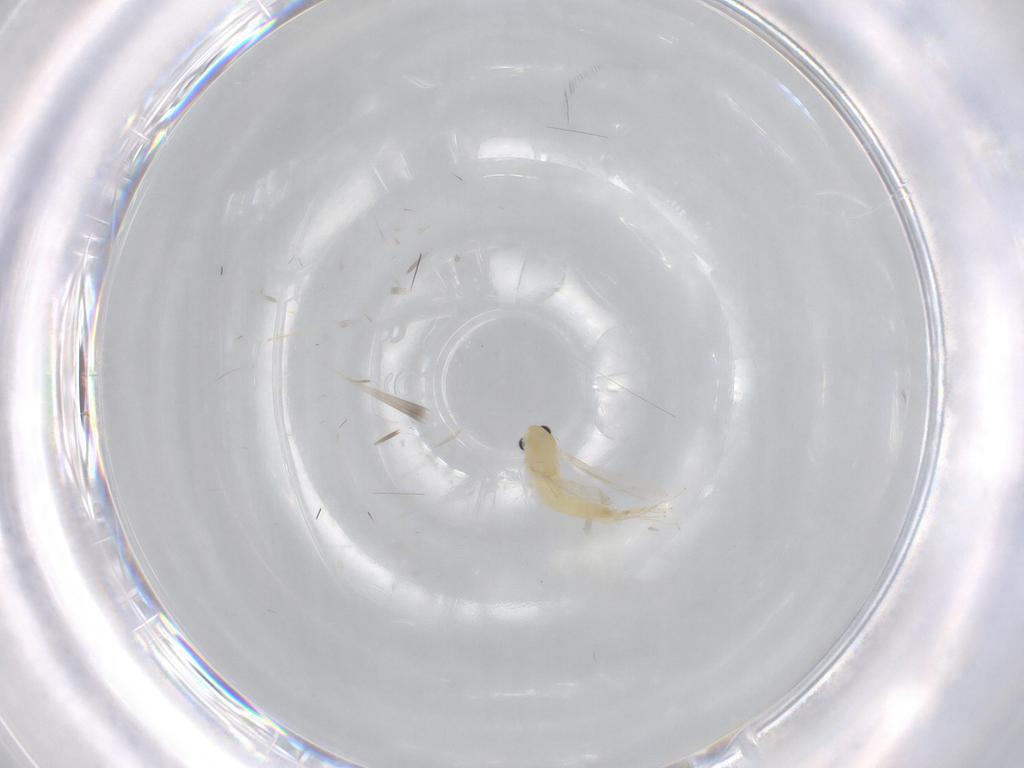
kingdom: Animalia
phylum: Arthropoda
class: Insecta
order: Diptera
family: Chironomidae
